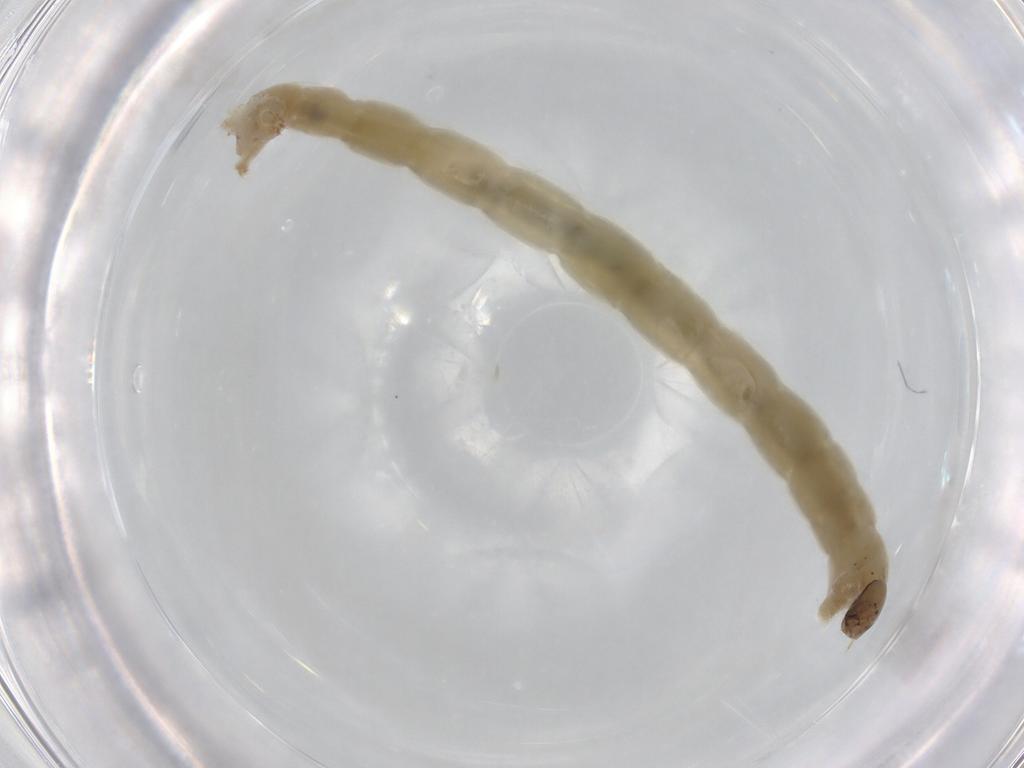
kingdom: Animalia
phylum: Arthropoda
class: Insecta
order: Diptera
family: Chironomidae
